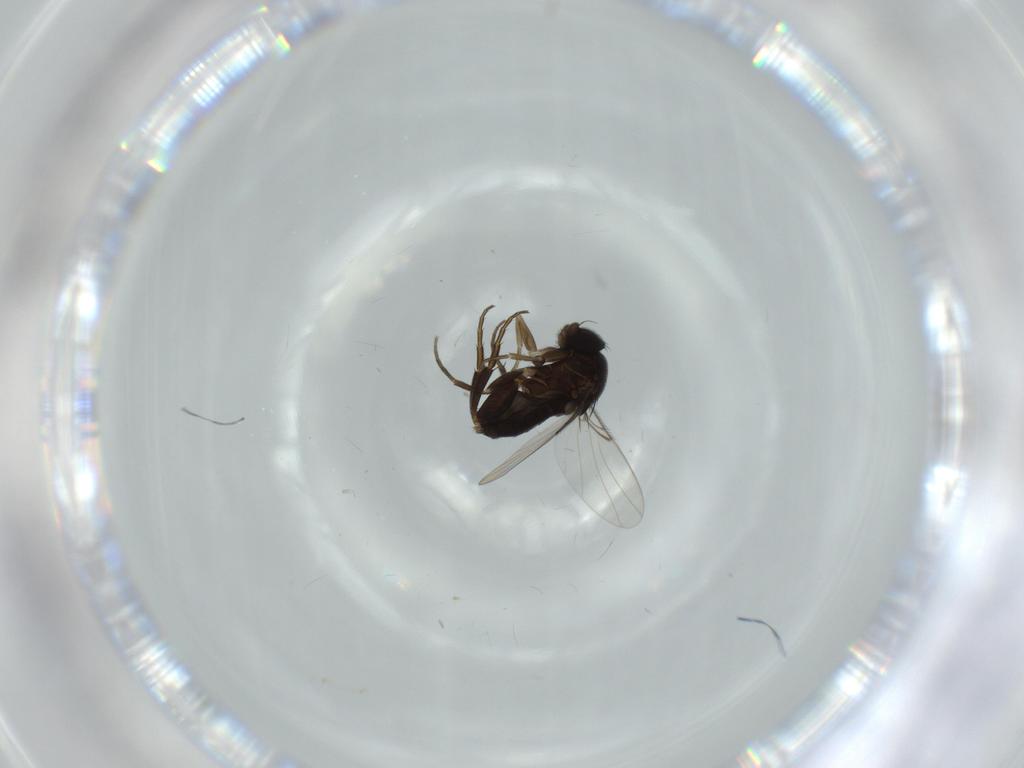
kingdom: Animalia
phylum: Arthropoda
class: Insecta
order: Diptera
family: Phoridae
